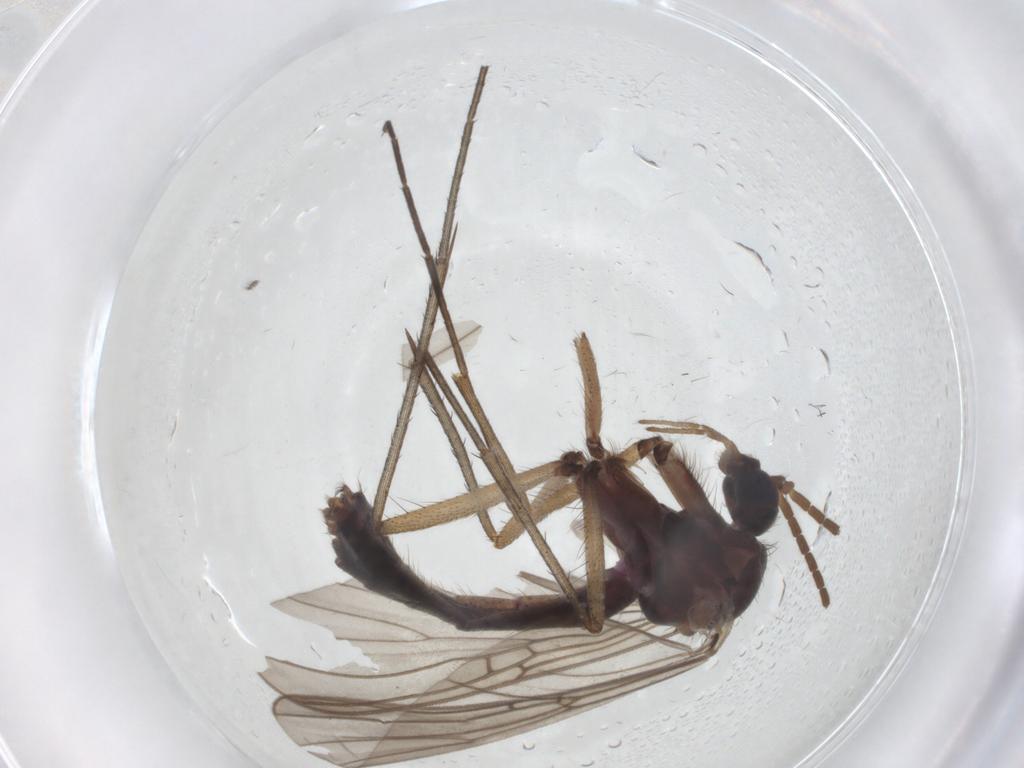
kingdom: Animalia
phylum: Arthropoda
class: Insecta
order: Diptera
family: Mycetophilidae
